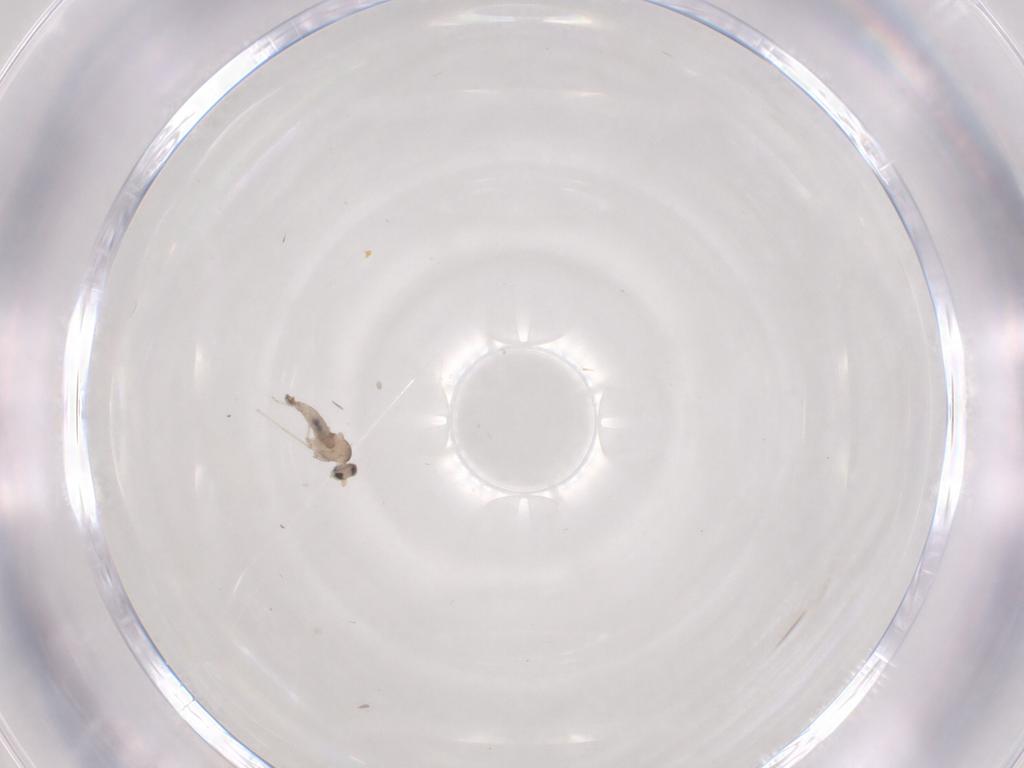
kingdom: Animalia
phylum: Arthropoda
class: Insecta
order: Diptera
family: Cecidomyiidae
